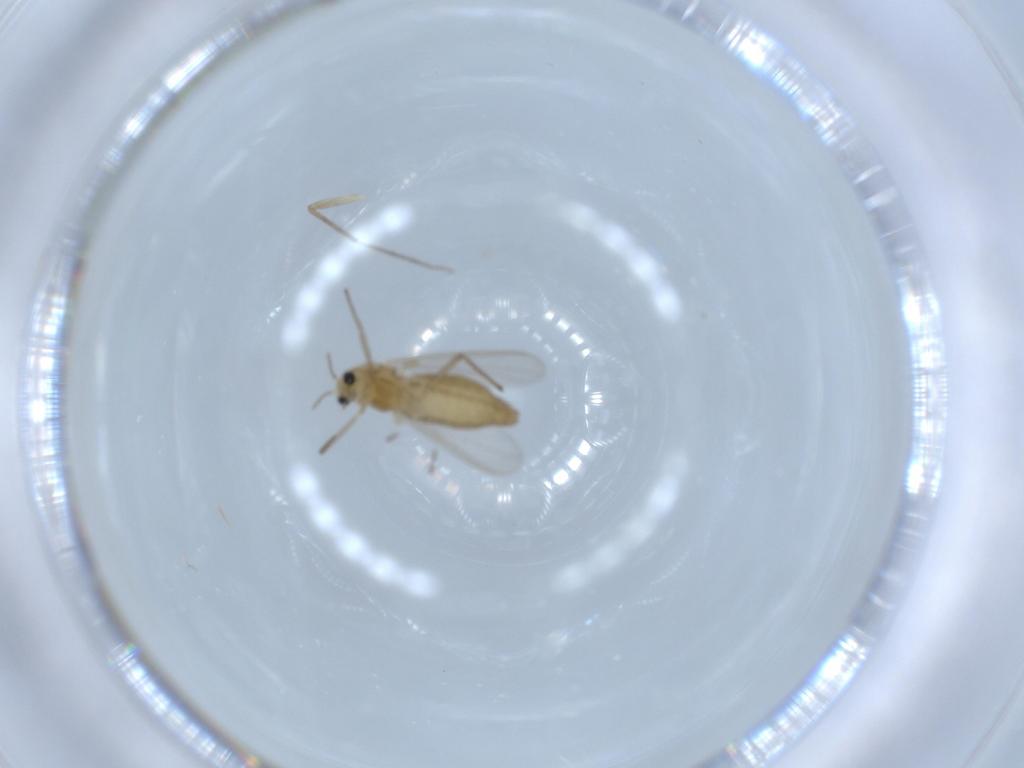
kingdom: Animalia
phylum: Arthropoda
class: Insecta
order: Diptera
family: Chironomidae
